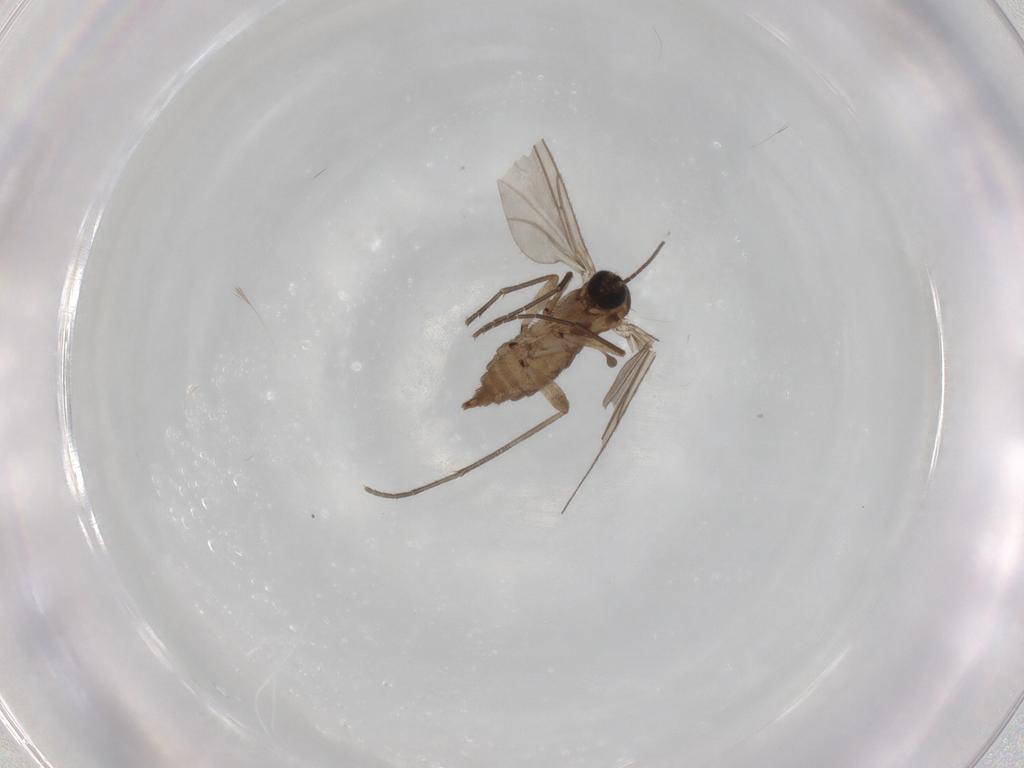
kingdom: Animalia
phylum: Arthropoda
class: Insecta
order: Diptera
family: Sciaridae
